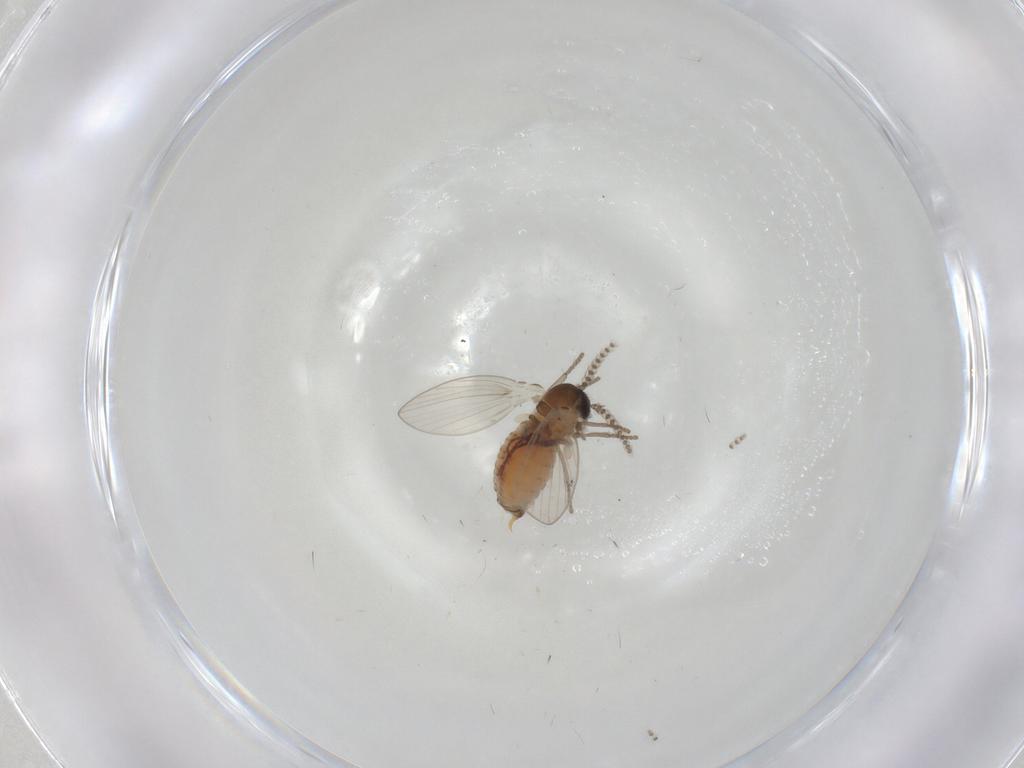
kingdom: Animalia
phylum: Arthropoda
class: Insecta
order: Diptera
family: Psychodidae
